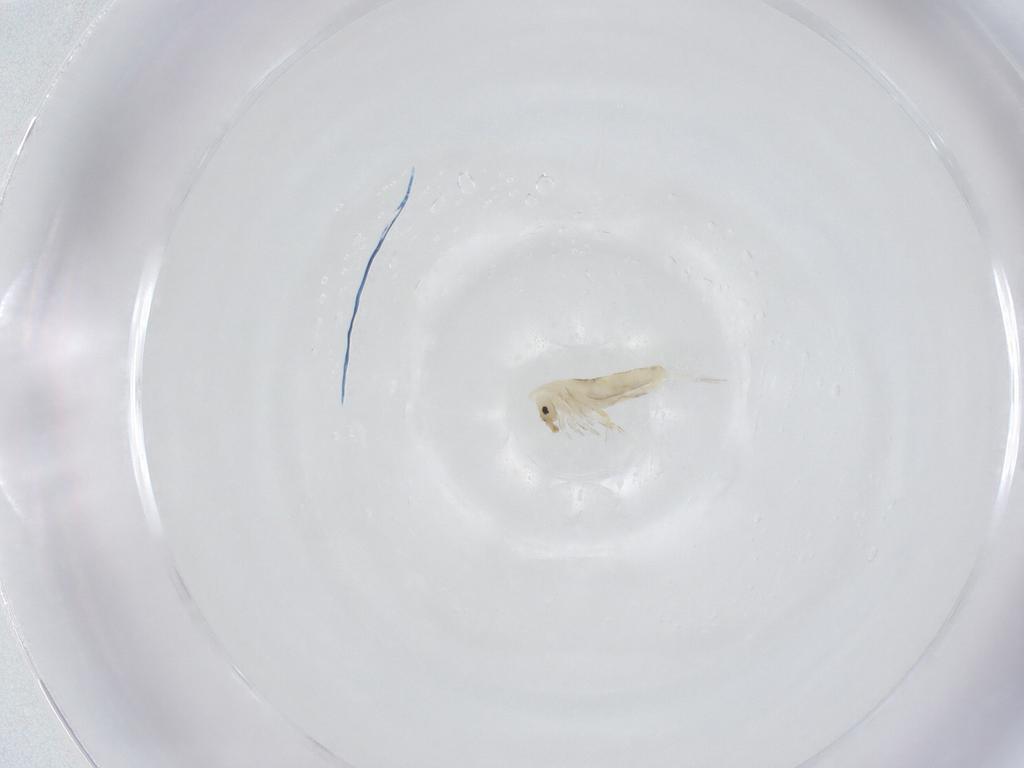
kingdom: Animalia
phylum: Arthropoda
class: Collembola
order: Entomobryomorpha
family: Entomobryidae
